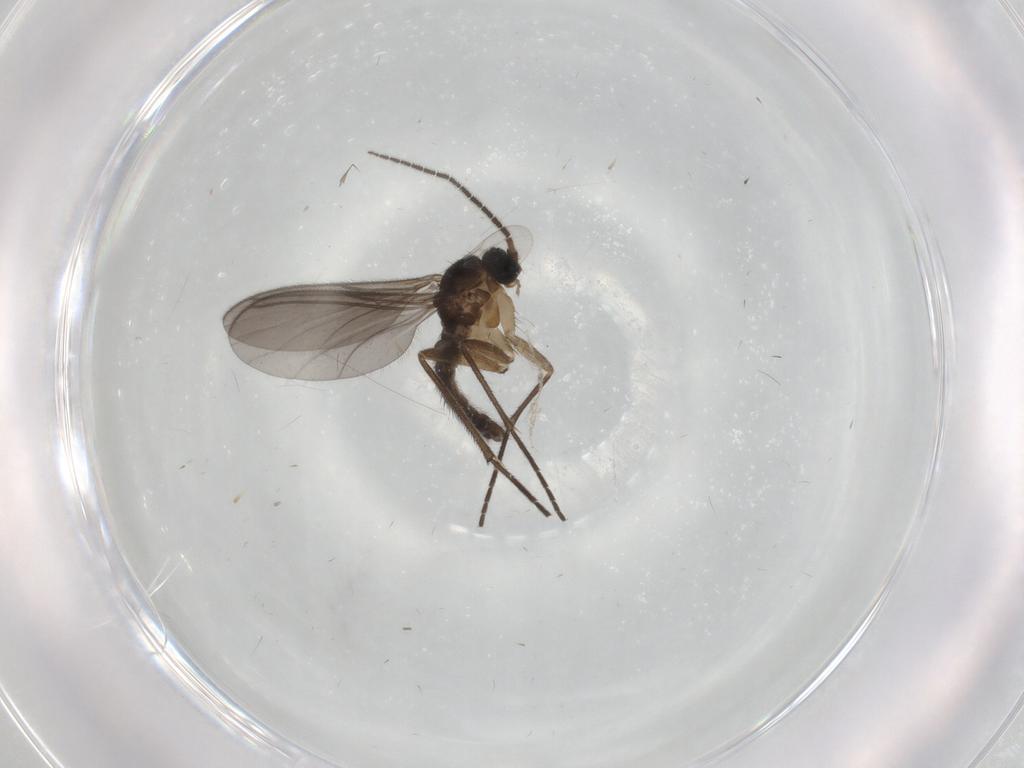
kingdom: Animalia
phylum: Arthropoda
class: Insecta
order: Diptera
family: Sciaridae
